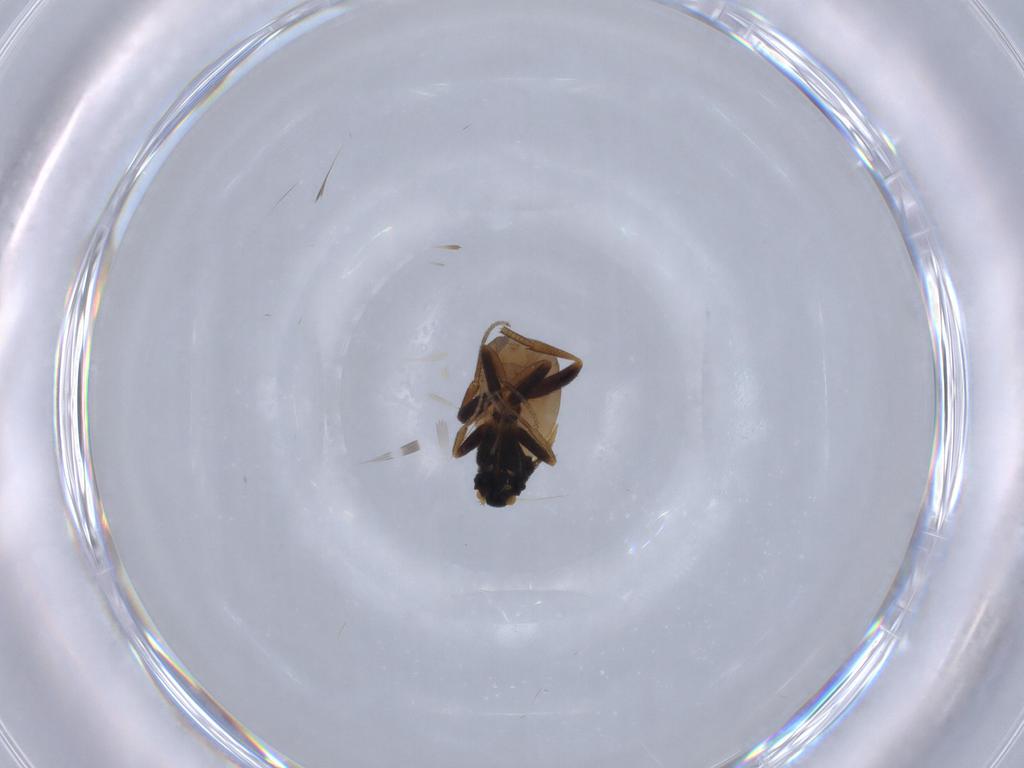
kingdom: Animalia
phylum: Arthropoda
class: Insecta
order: Diptera
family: Phoridae
